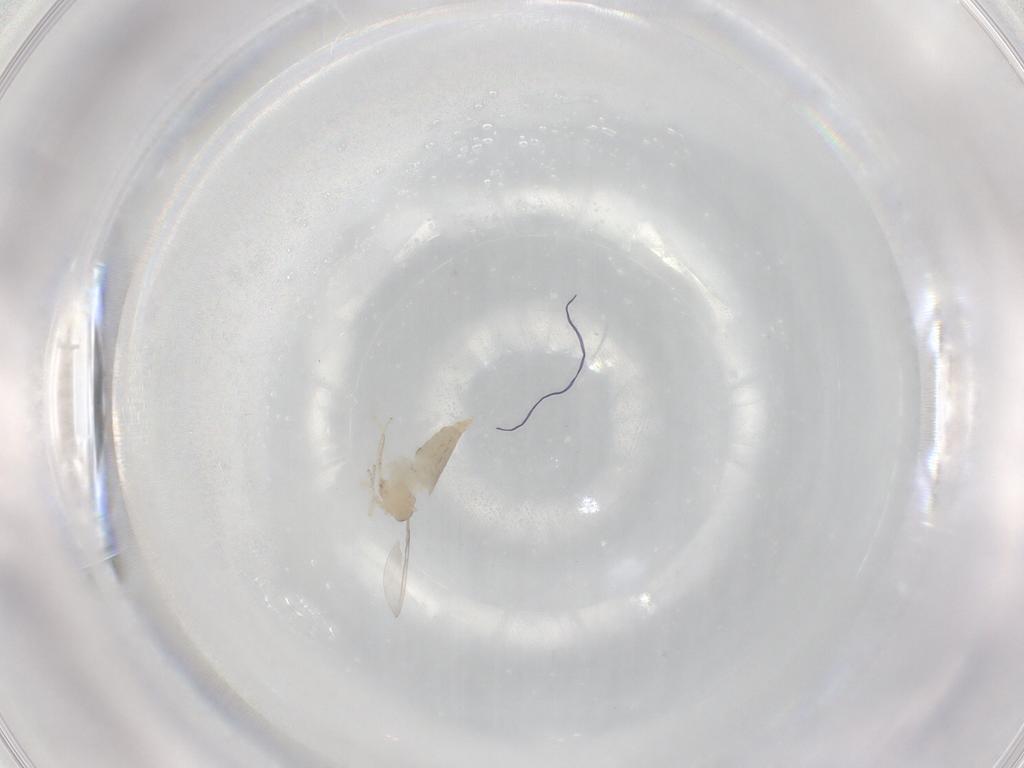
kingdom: Animalia
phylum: Arthropoda
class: Insecta
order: Diptera
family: Cecidomyiidae
